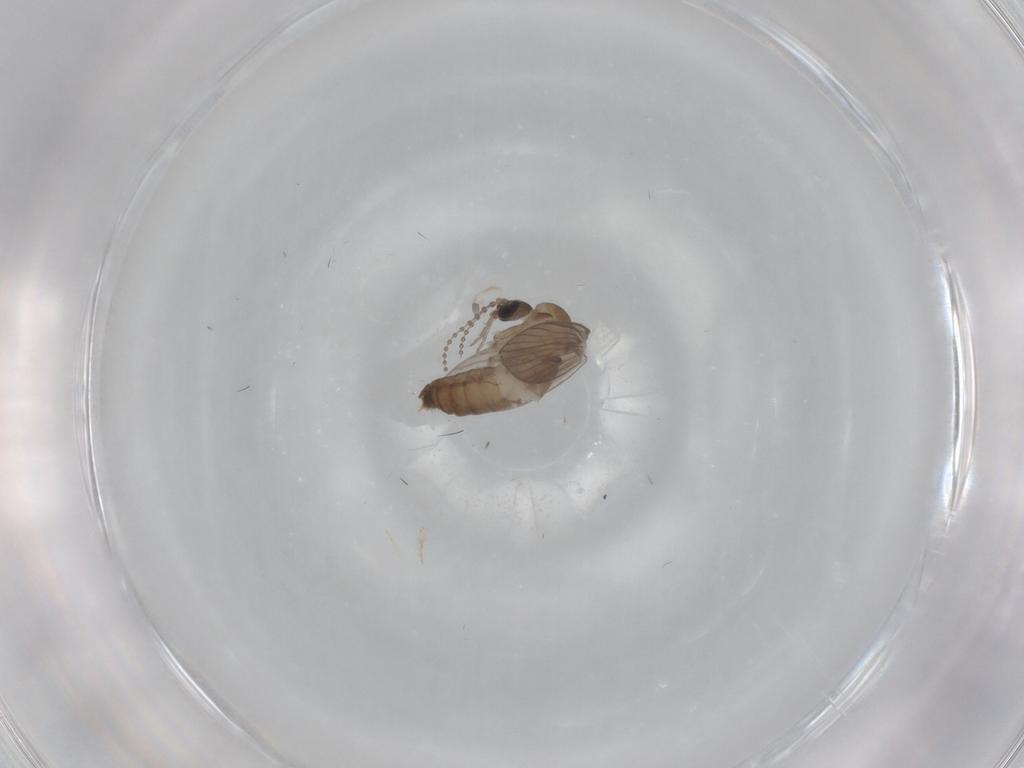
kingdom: Animalia
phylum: Arthropoda
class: Insecta
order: Diptera
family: Psychodidae
